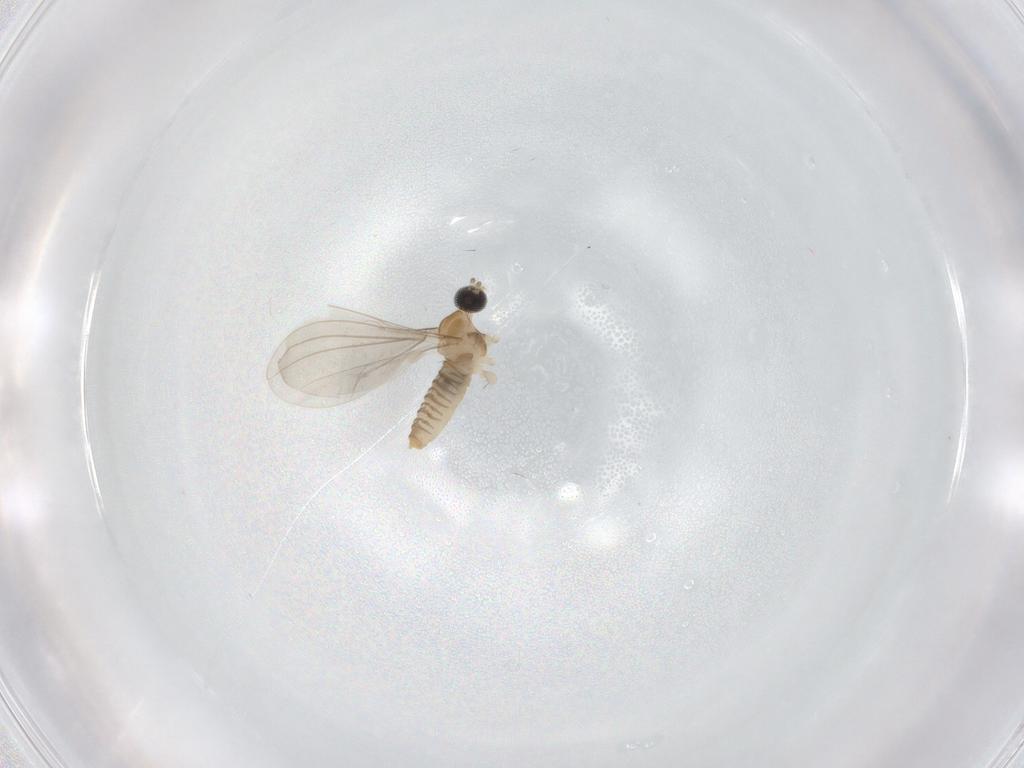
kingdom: Animalia
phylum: Arthropoda
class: Insecta
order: Diptera
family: Cecidomyiidae
